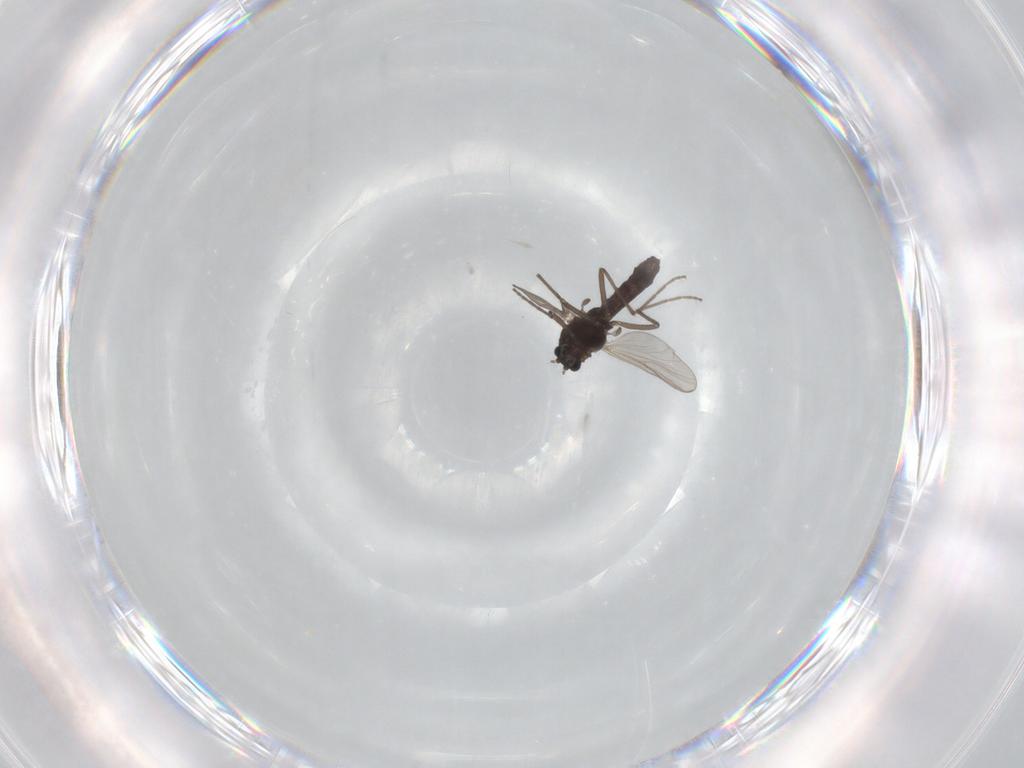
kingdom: Animalia
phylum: Arthropoda
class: Insecta
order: Diptera
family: Chironomidae
